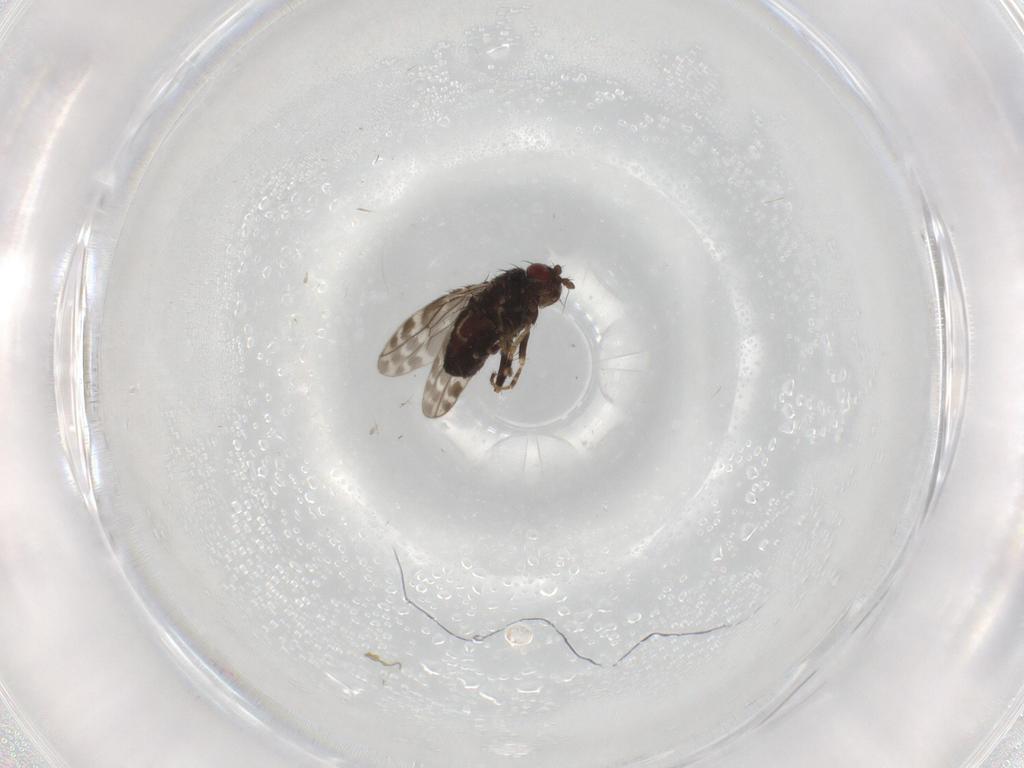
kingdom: Animalia
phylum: Arthropoda
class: Insecta
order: Diptera
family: Sphaeroceridae
